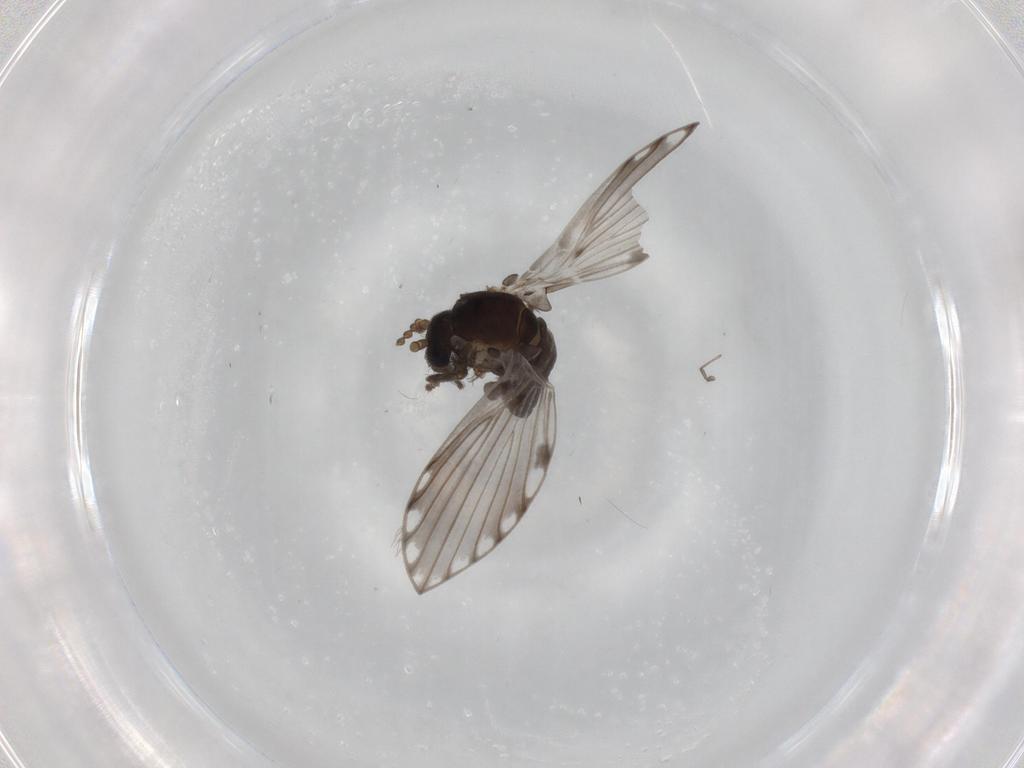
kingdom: Animalia
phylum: Arthropoda
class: Insecta
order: Diptera
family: Phoridae
